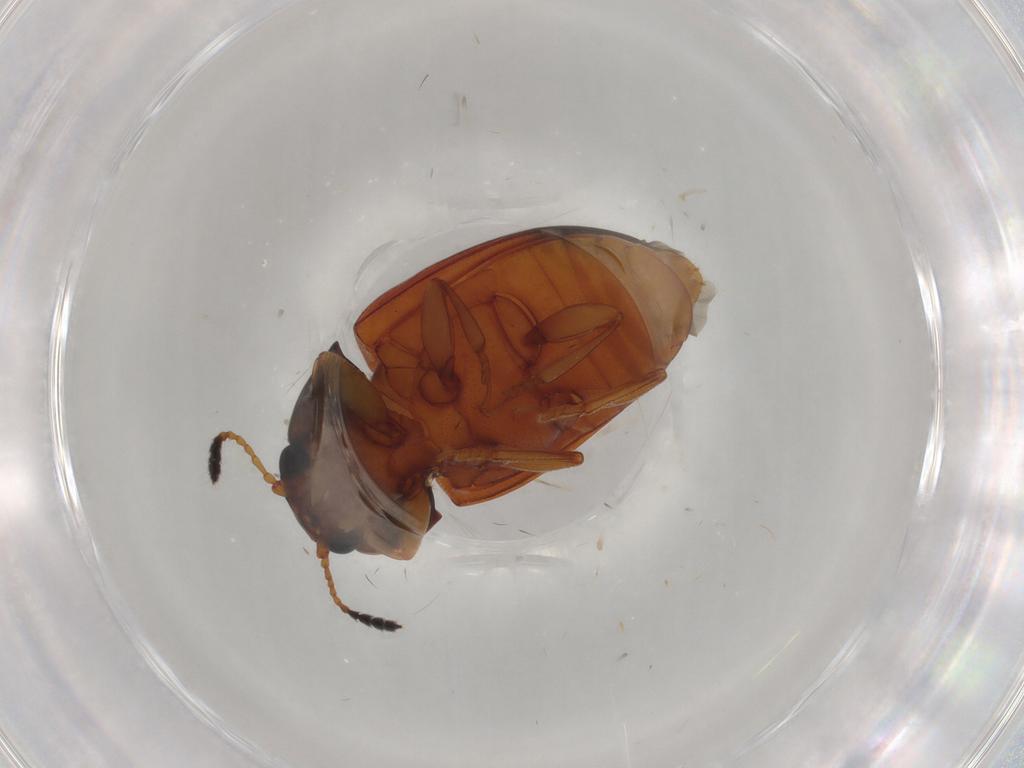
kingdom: Animalia
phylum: Arthropoda
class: Insecta
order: Coleoptera
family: Erotylidae
